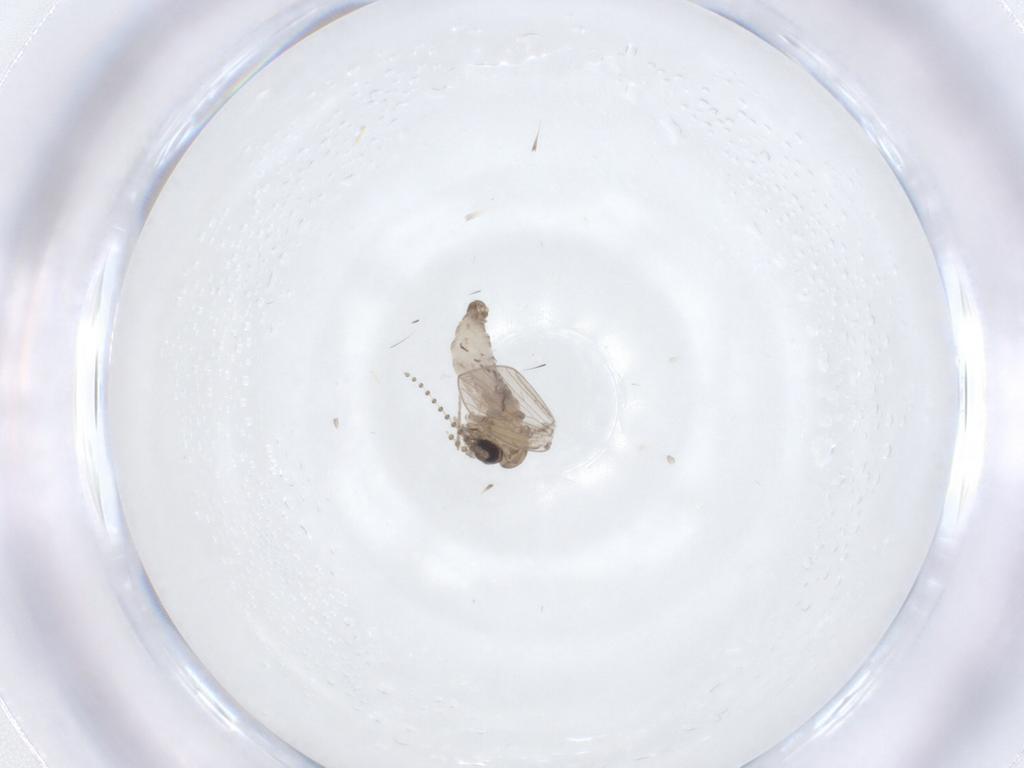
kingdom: Animalia
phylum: Arthropoda
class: Insecta
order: Diptera
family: Psychodidae
